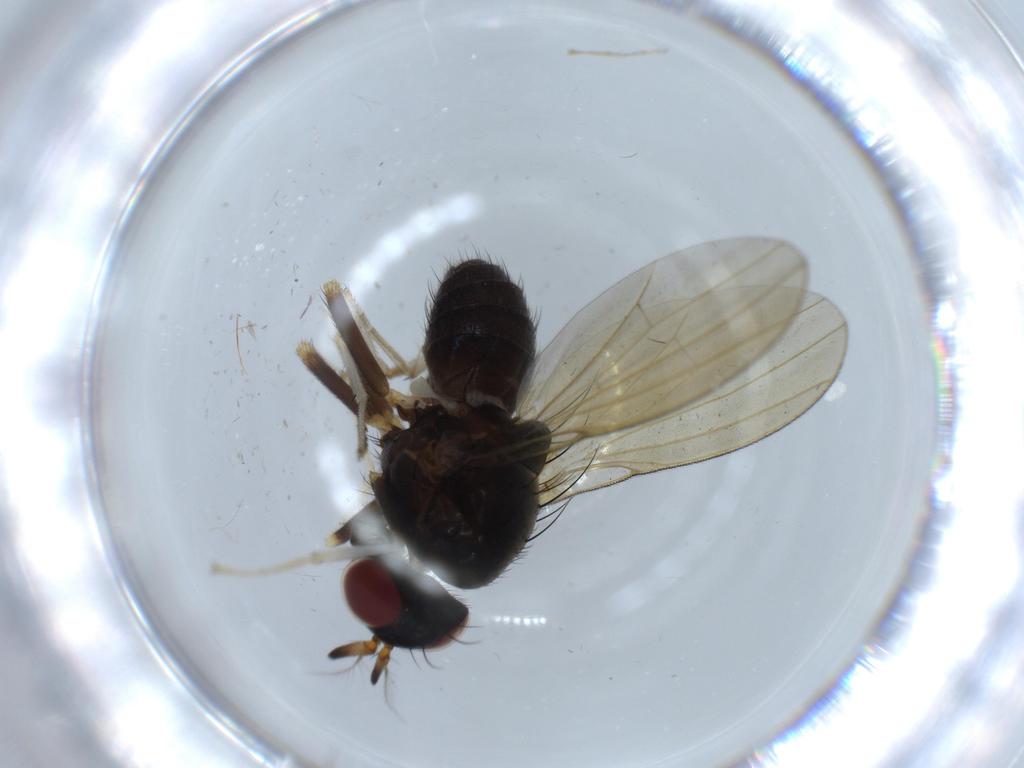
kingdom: Animalia
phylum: Arthropoda
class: Insecta
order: Diptera
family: Lauxaniidae
